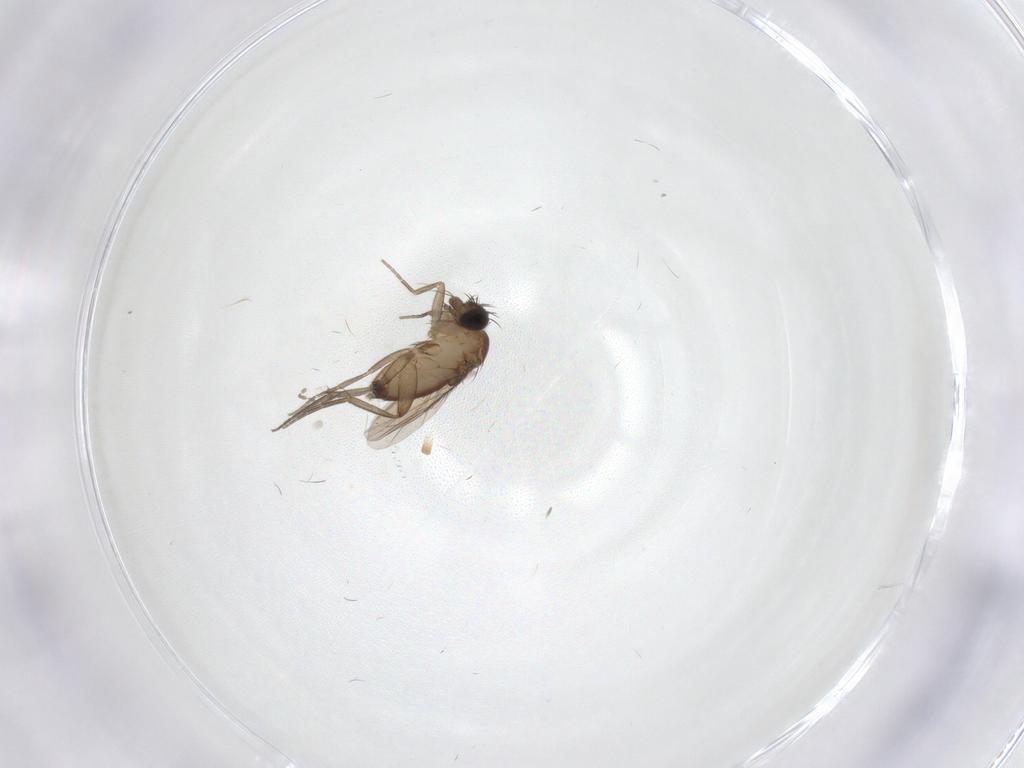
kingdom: Animalia
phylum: Arthropoda
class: Insecta
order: Diptera
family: Phoridae
